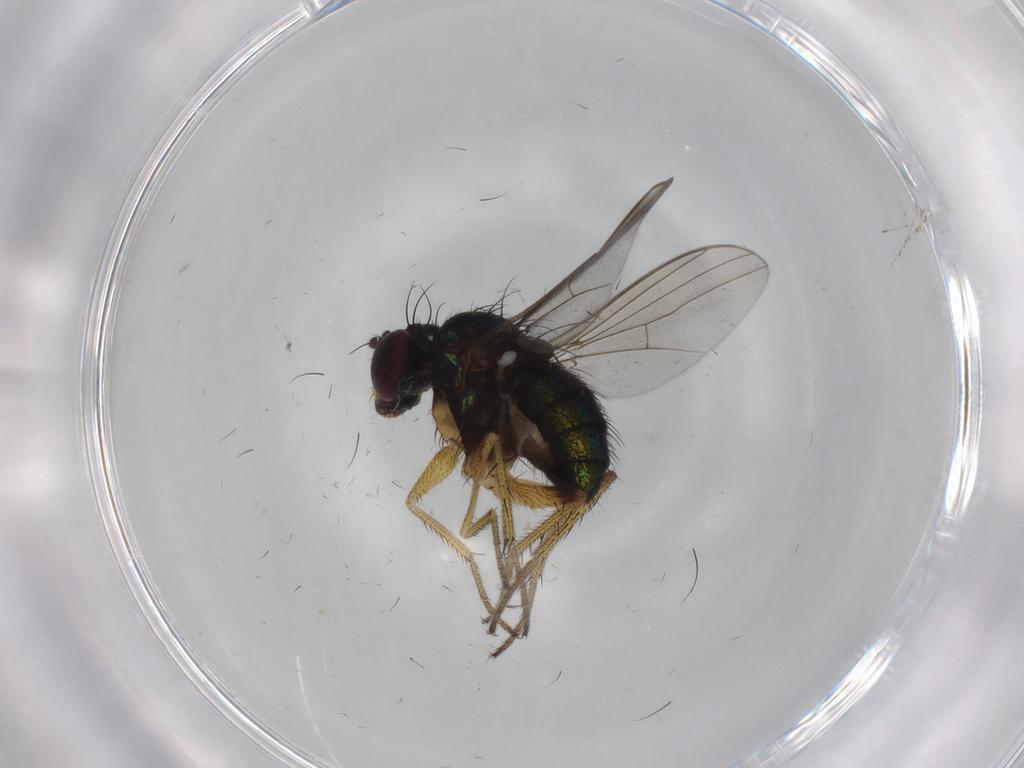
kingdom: Animalia
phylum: Arthropoda
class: Insecta
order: Diptera
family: Dolichopodidae
